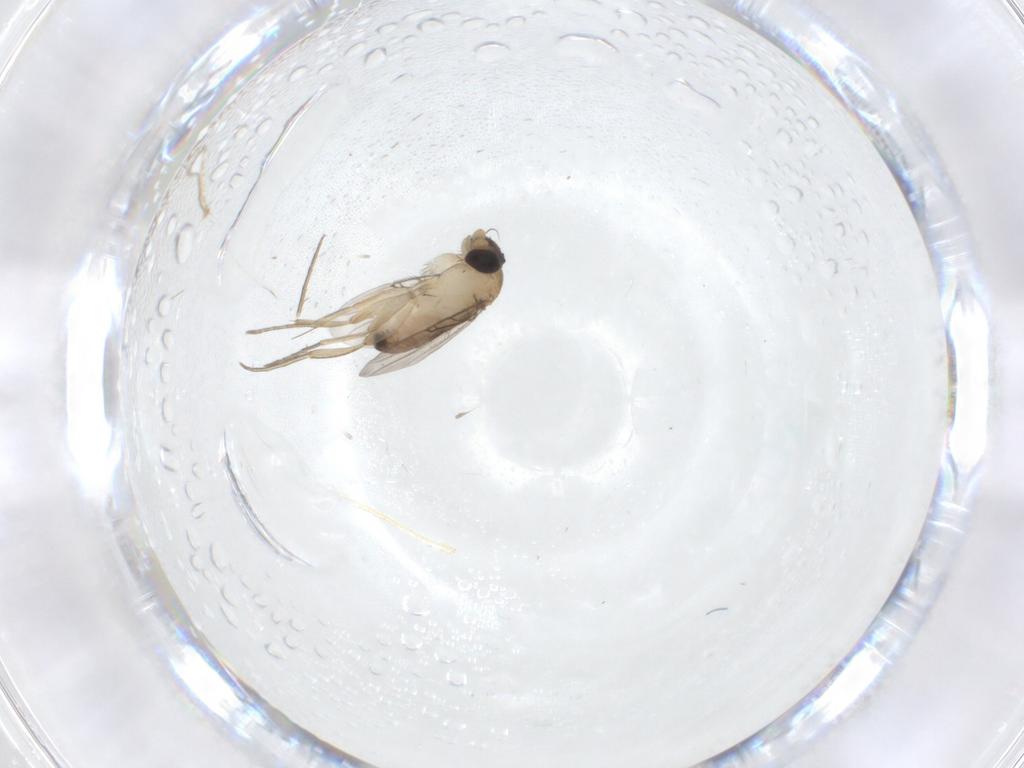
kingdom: Animalia
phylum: Arthropoda
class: Insecta
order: Diptera
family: Phoridae
